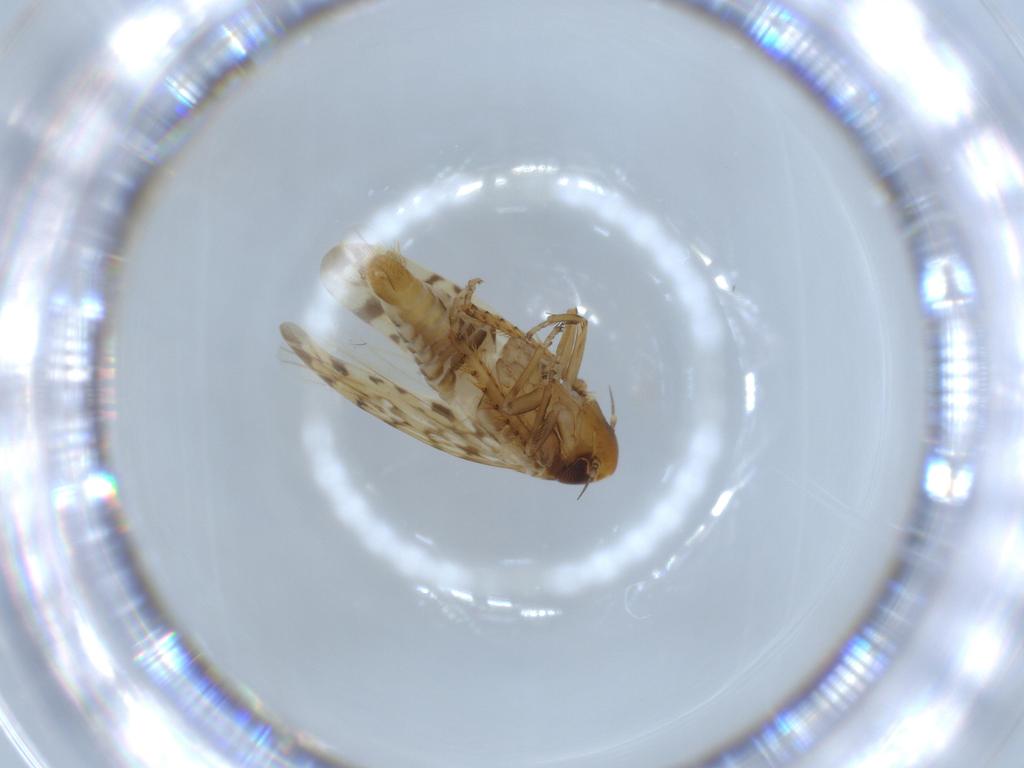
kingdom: Animalia
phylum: Arthropoda
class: Insecta
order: Hemiptera
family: Cicadellidae
